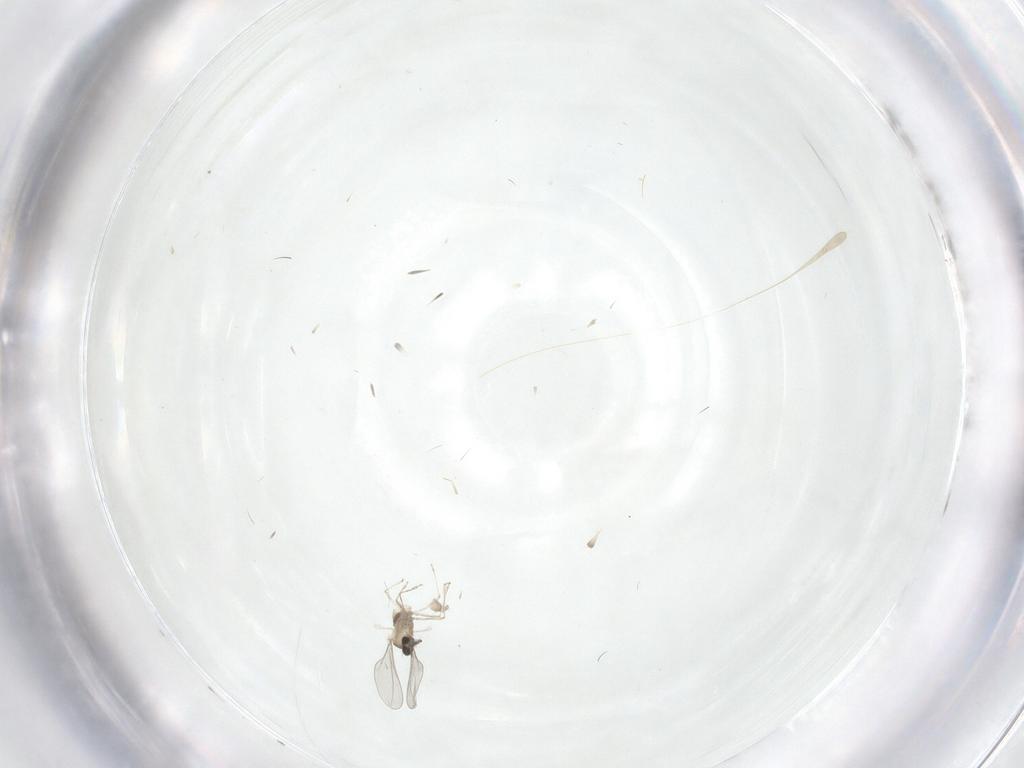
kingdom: Animalia
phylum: Arthropoda
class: Insecta
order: Diptera
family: Cecidomyiidae
